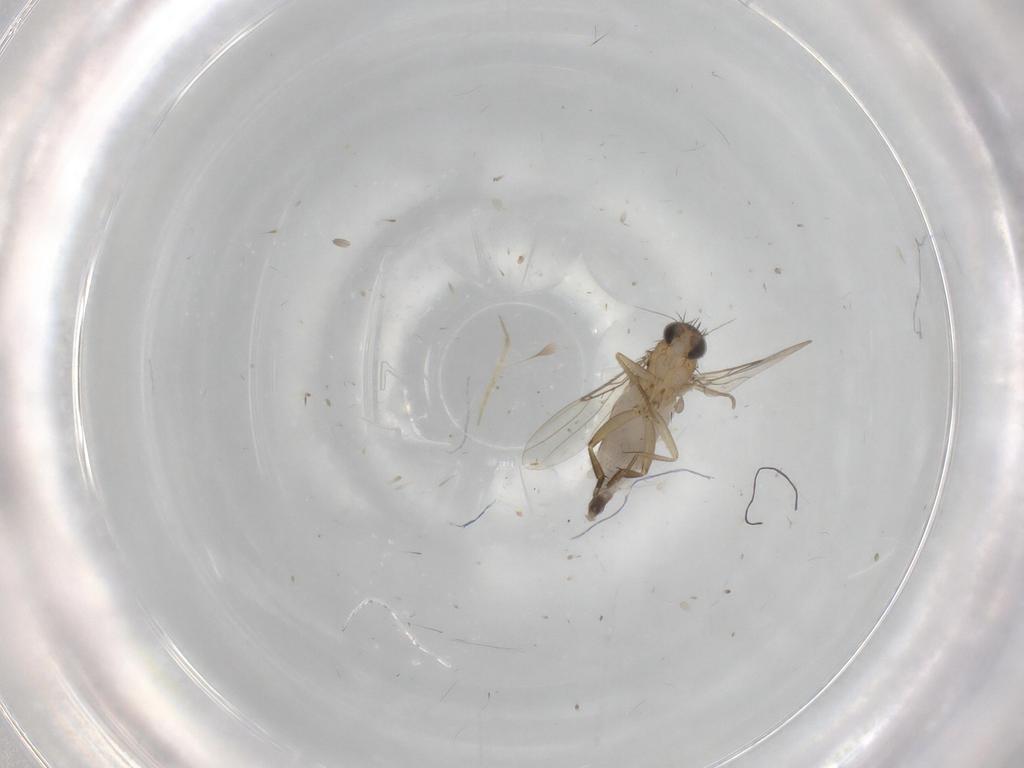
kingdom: Animalia
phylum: Arthropoda
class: Insecta
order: Diptera
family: Phoridae
